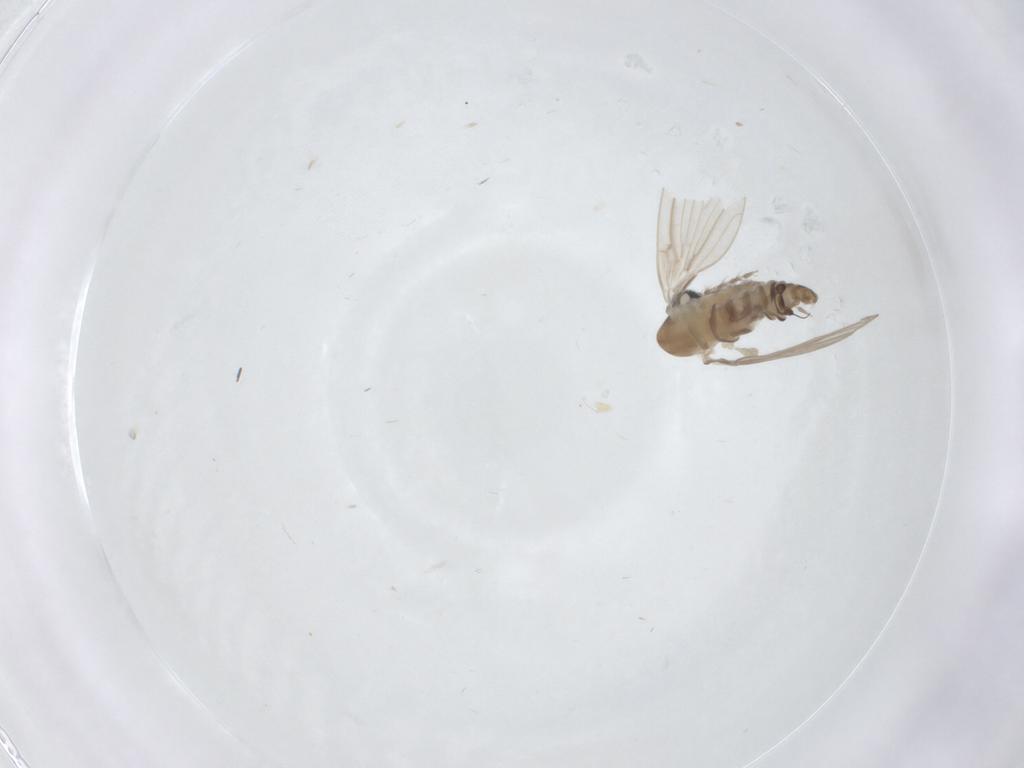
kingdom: Animalia
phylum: Arthropoda
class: Insecta
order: Diptera
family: Psychodidae
